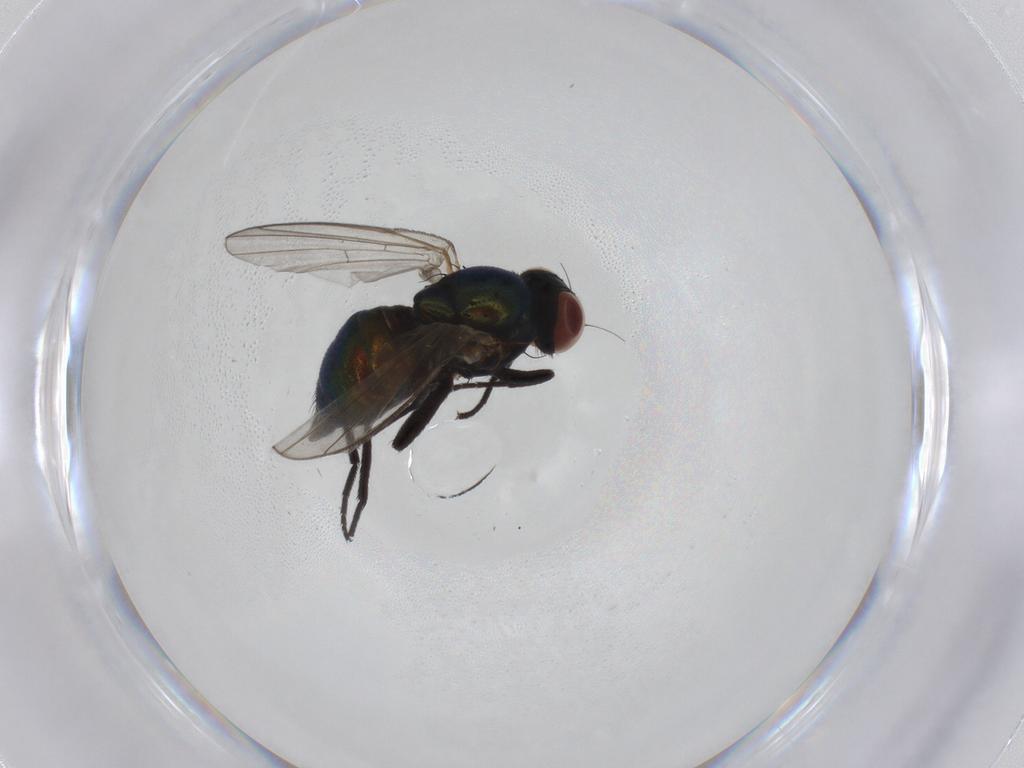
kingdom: Animalia
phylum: Arthropoda
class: Insecta
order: Diptera
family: Agromyzidae
